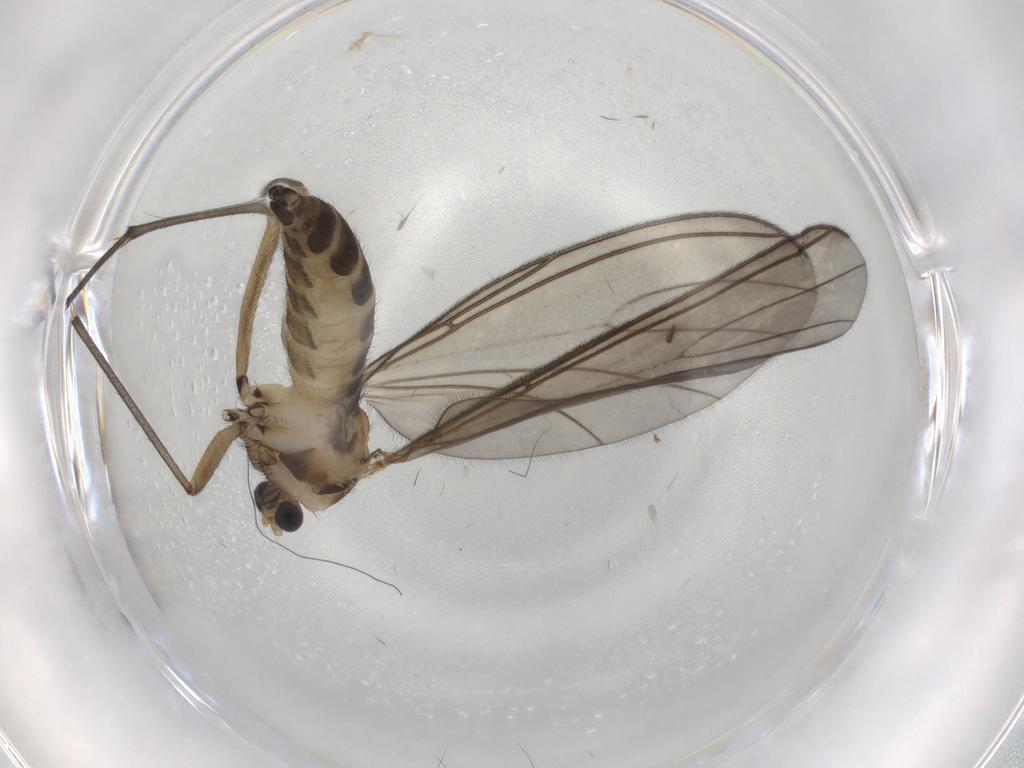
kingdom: Animalia
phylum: Arthropoda
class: Insecta
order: Diptera
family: Sciaridae
